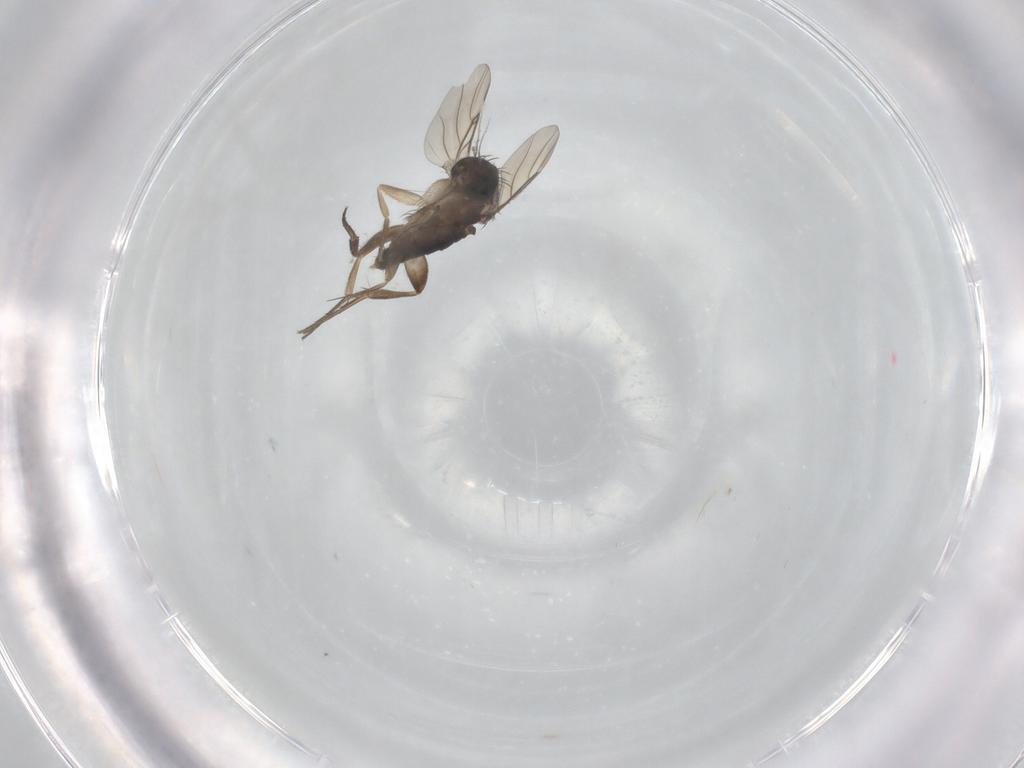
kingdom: Animalia
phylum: Arthropoda
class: Insecta
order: Diptera
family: Phoridae
